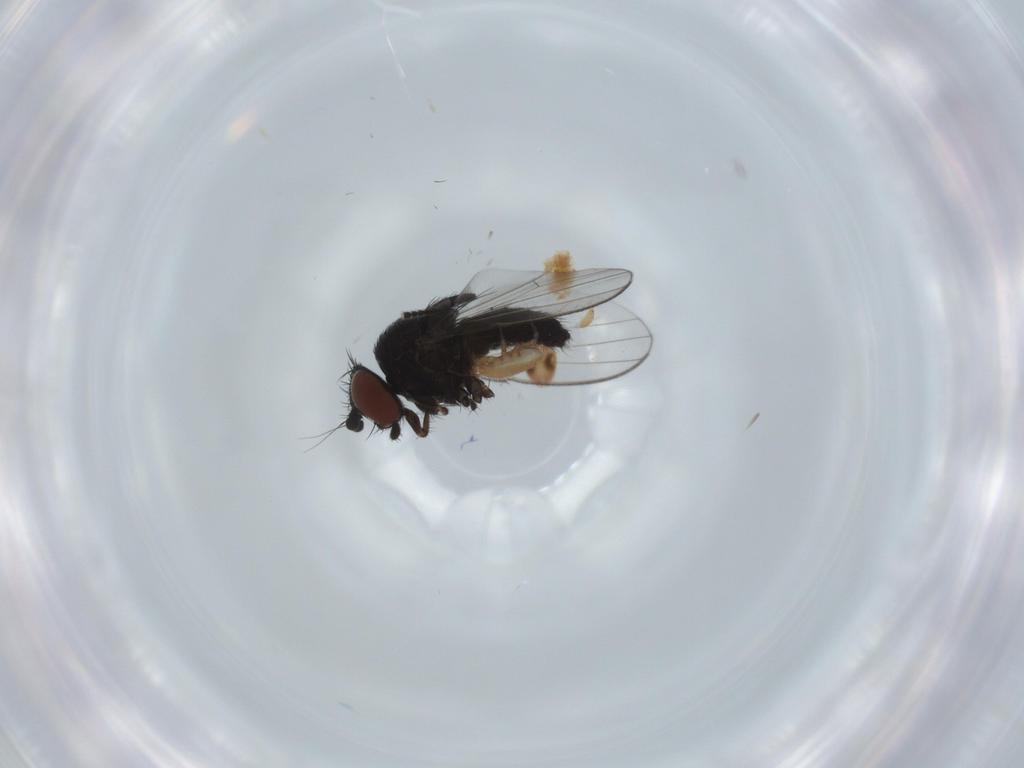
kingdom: Animalia
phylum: Arthropoda
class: Insecta
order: Diptera
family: Milichiidae
